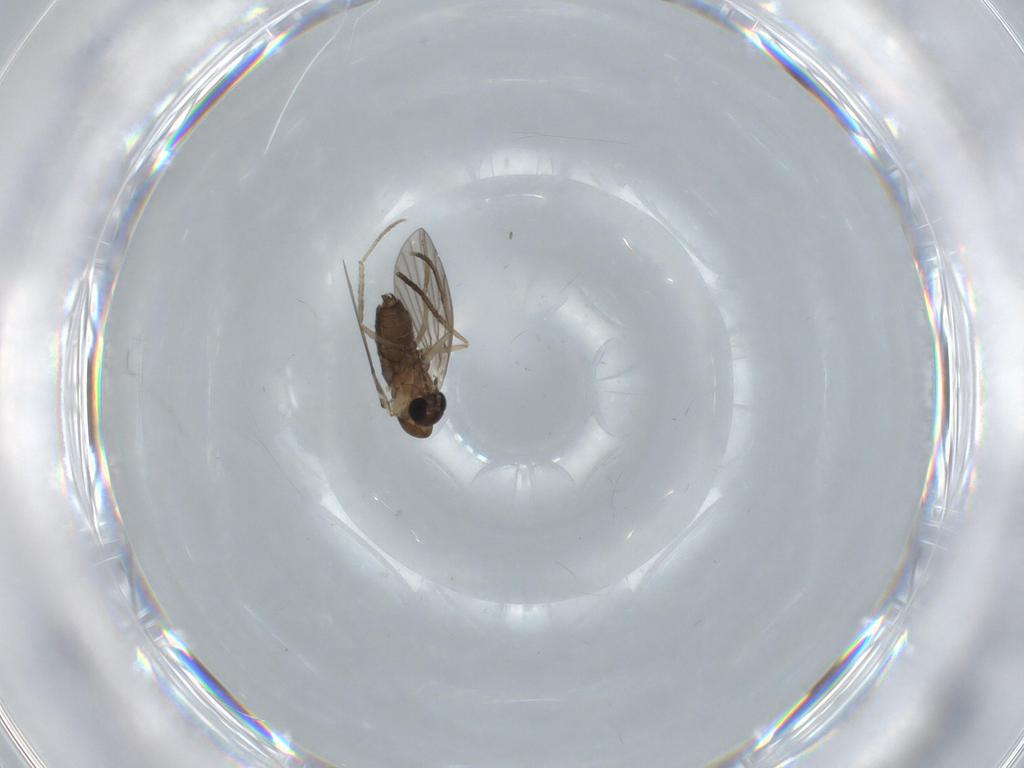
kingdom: Animalia
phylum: Arthropoda
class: Insecta
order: Diptera
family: Psychodidae
